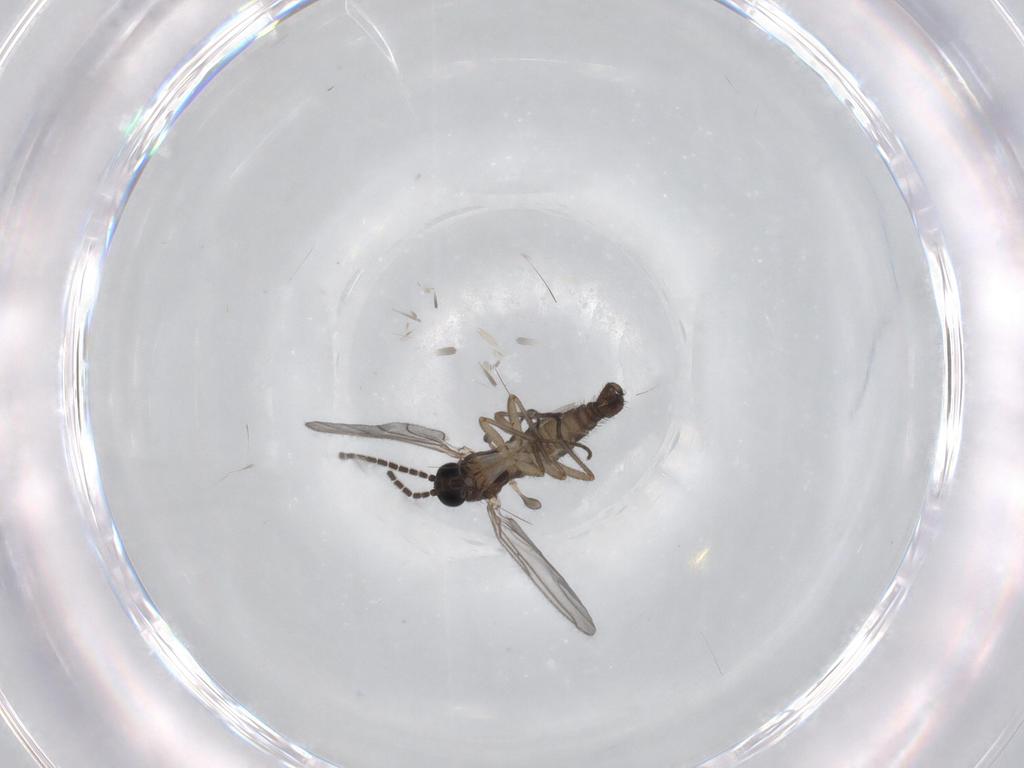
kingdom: Animalia
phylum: Arthropoda
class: Insecta
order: Diptera
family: Sciaridae
